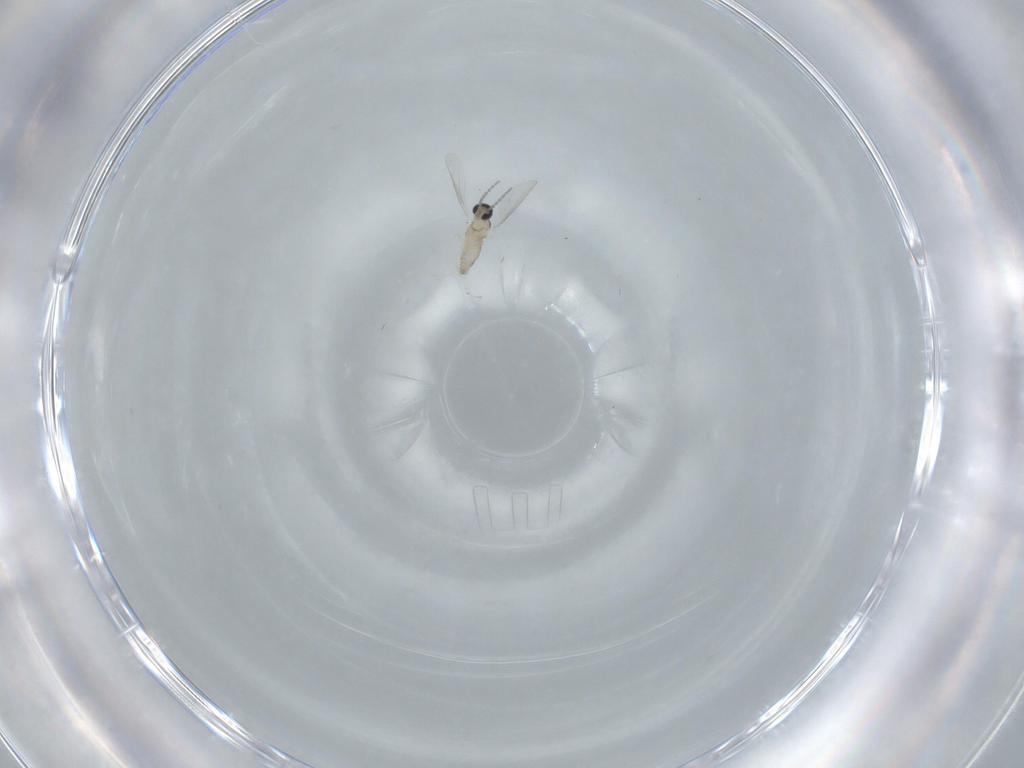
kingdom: Animalia
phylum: Arthropoda
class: Insecta
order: Diptera
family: Cecidomyiidae
